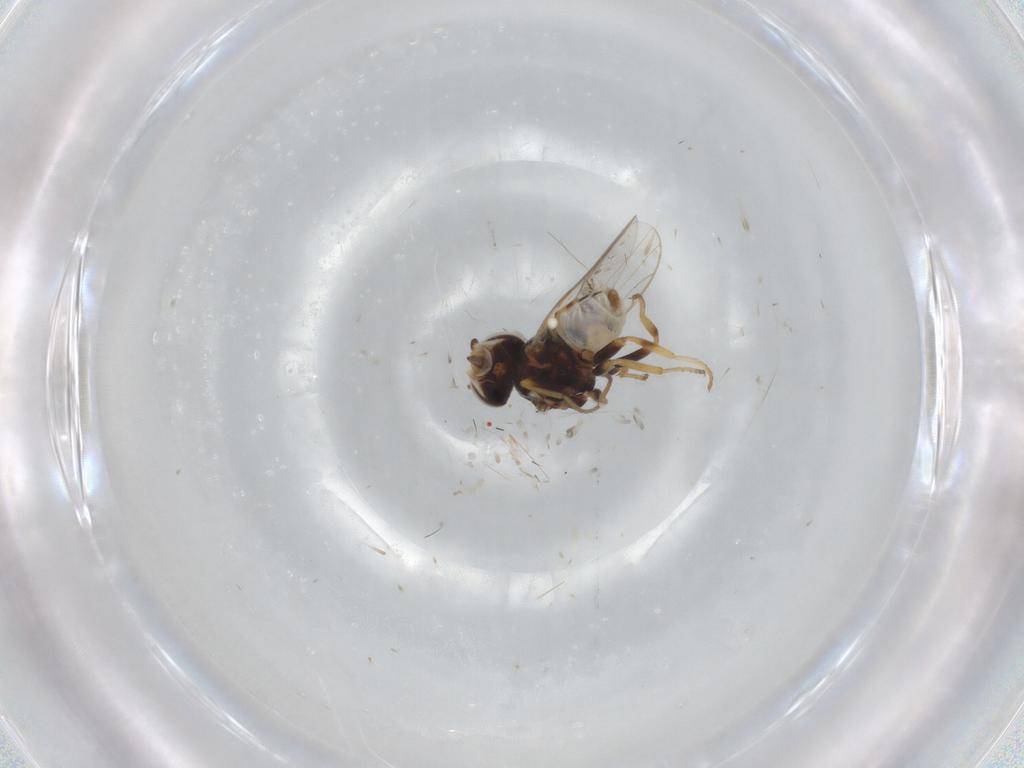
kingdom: Animalia
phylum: Arthropoda
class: Insecta
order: Diptera
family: Chloropidae
